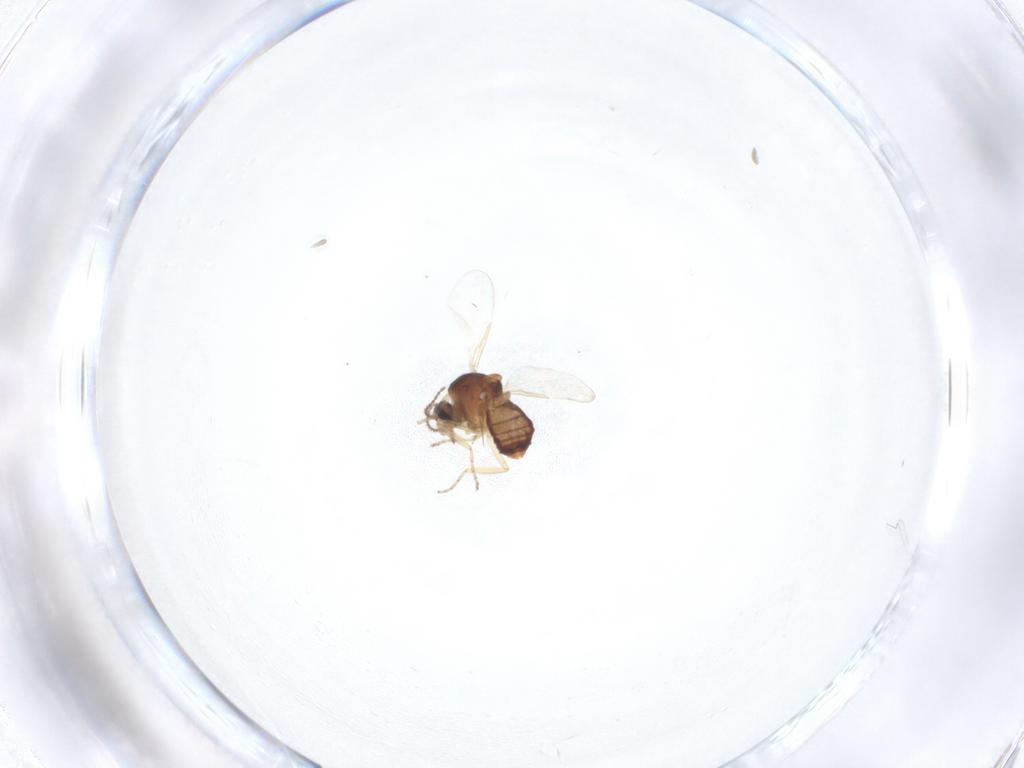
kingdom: Animalia
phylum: Arthropoda
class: Insecta
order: Diptera
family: Ceratopogonidae
